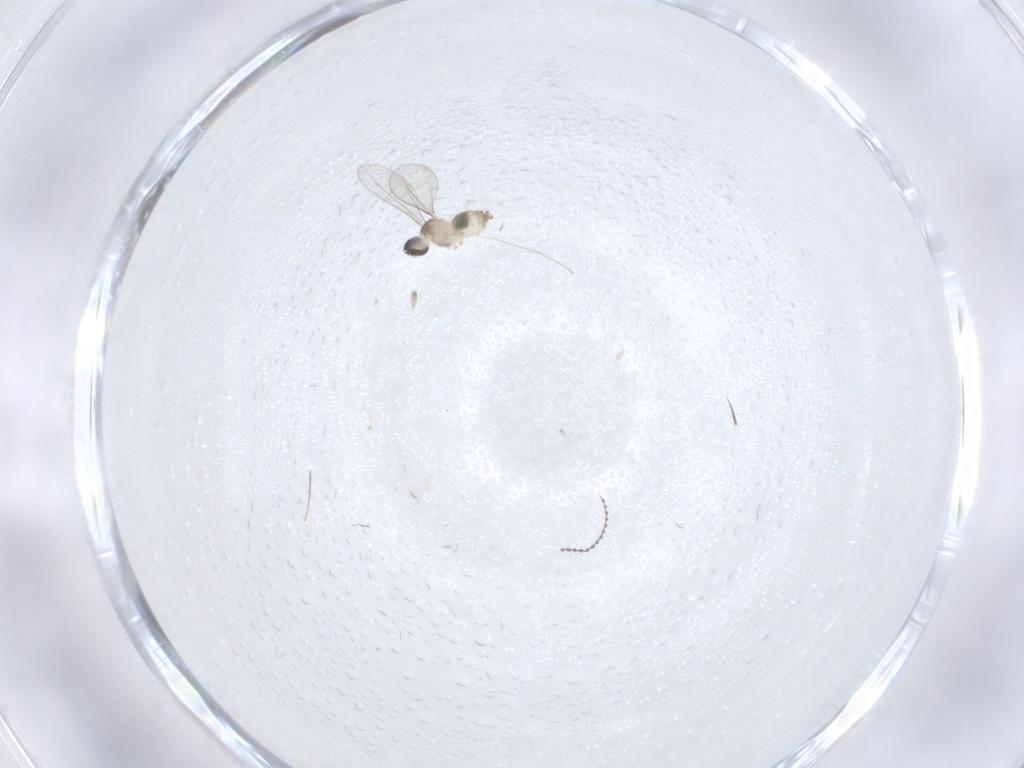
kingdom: Animalia
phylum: Arthropoda
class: Insecta
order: Diptera
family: Cecidomyiidae
